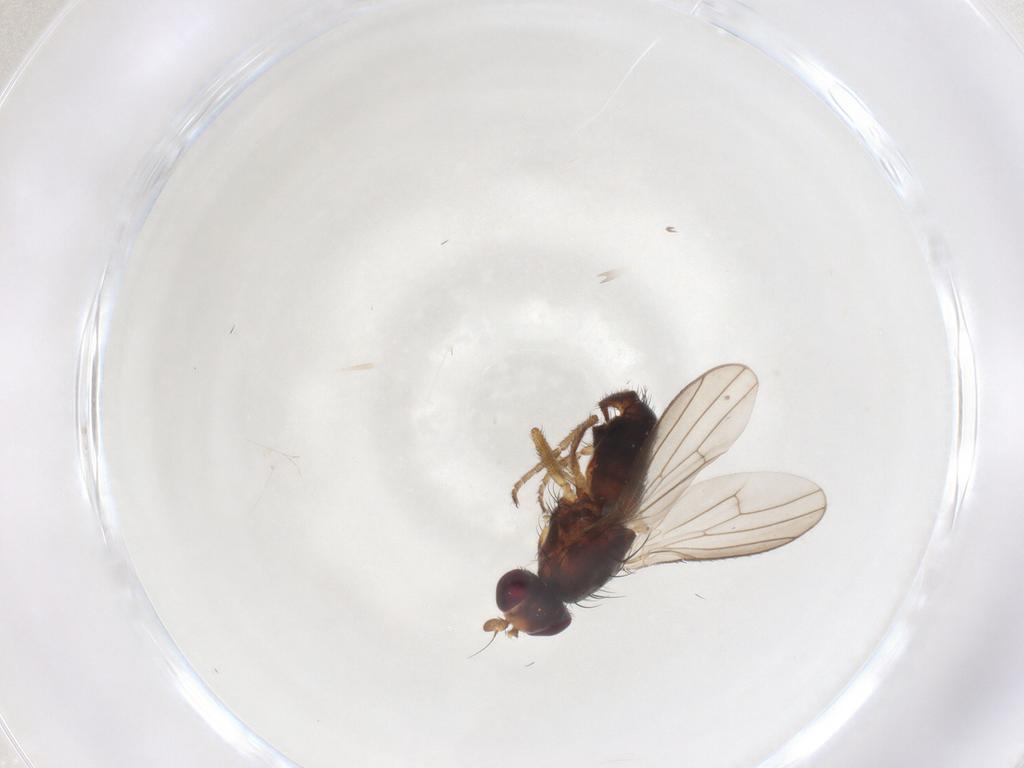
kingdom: Animalia
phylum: Arthropoda
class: Insecta
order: Diptera
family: Heleomyzidae
